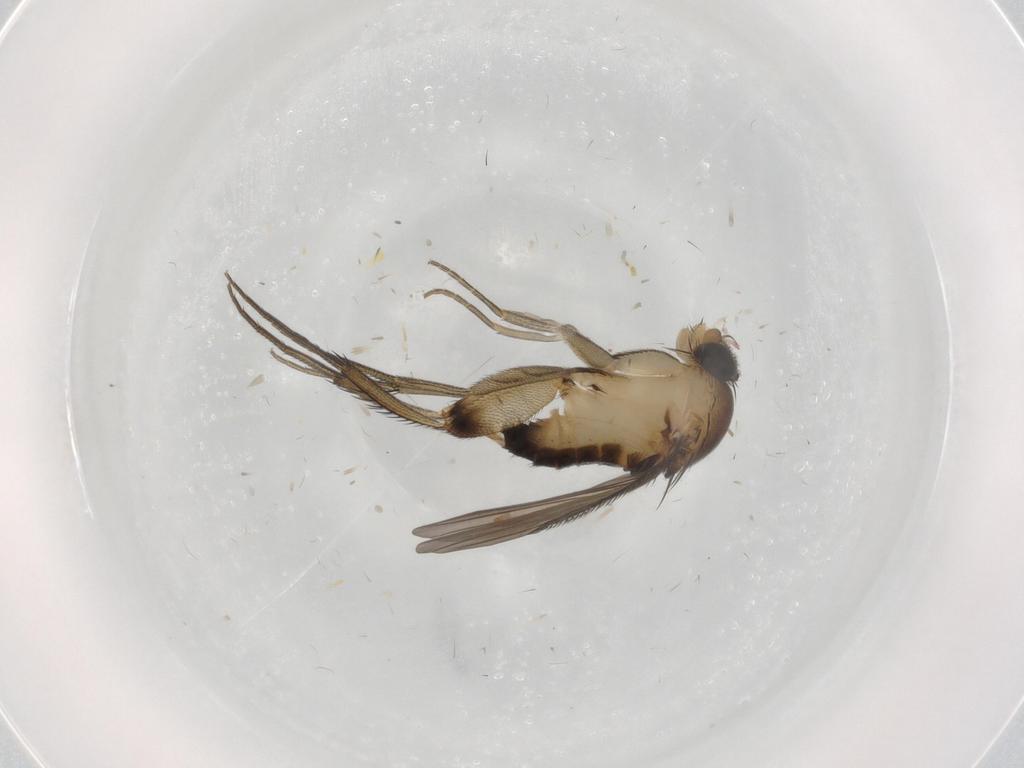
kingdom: Animalia
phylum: Arthropoda
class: Insecta
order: Diptera
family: Phoridae
